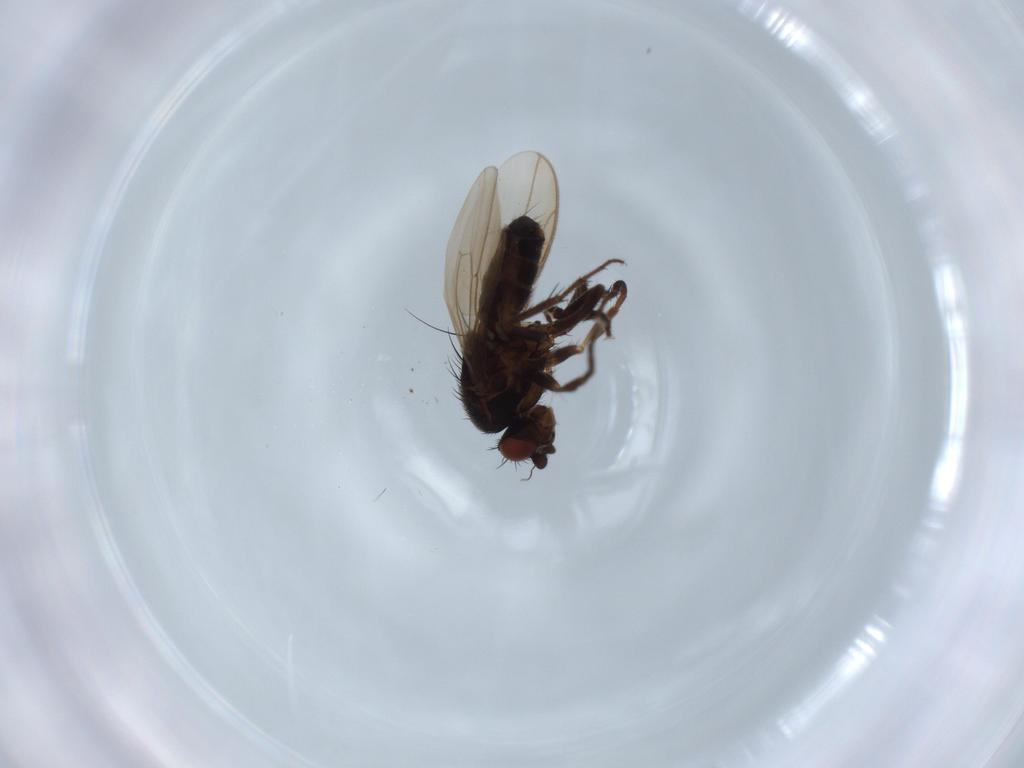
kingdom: Animalia
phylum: Arthropoda
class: Insecta
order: Diptera
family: Sphaeroceridae
